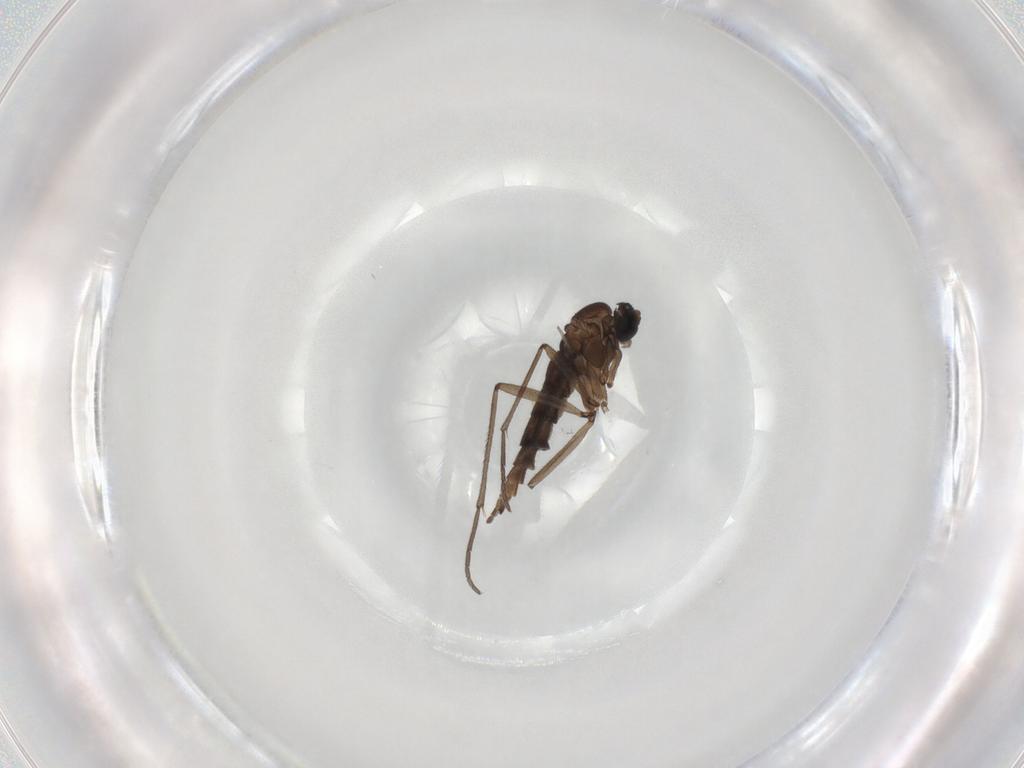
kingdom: Animalia
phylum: Arthropoda
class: Insecta
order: Diptera
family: Sciaridae
